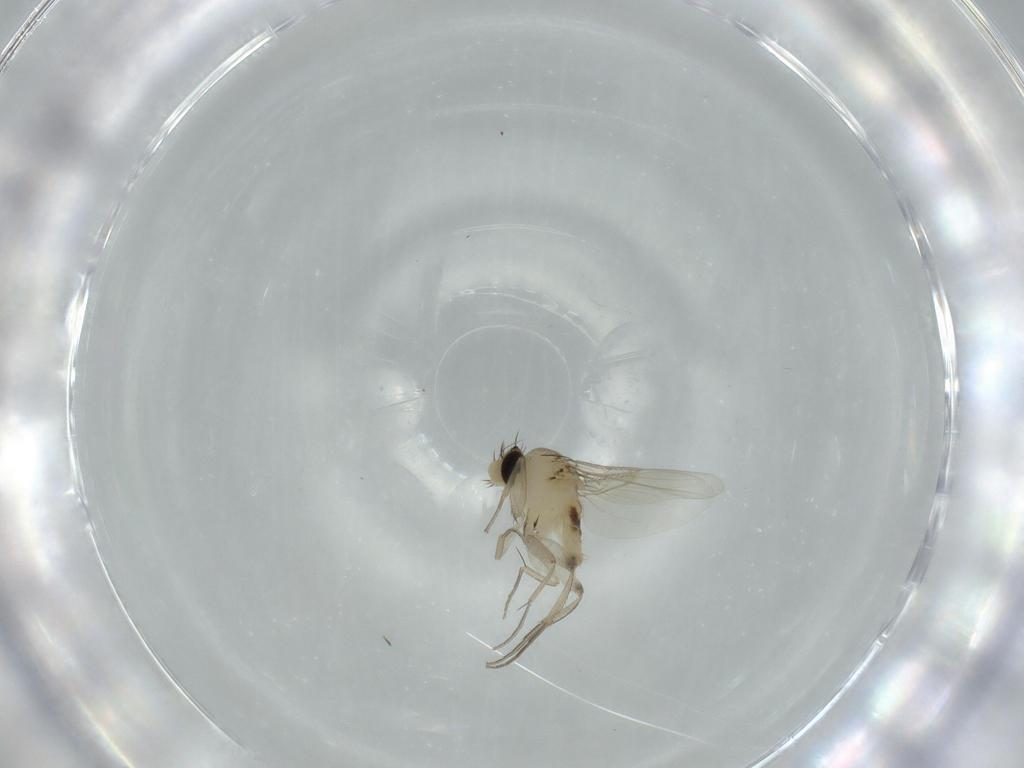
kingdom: Animalia
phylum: Arthropoda
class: Insecta
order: Diptera
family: Phoridae
